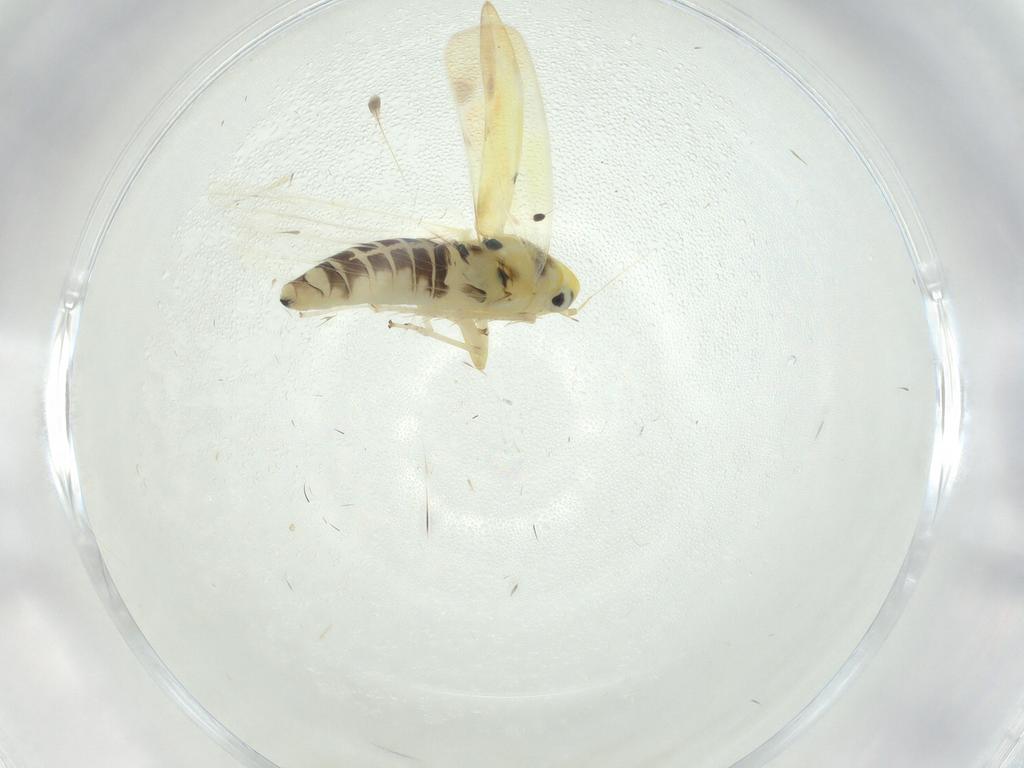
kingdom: Animalia
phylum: Arthropoda
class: Insecta
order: Hemiptera
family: Cicadellidae
